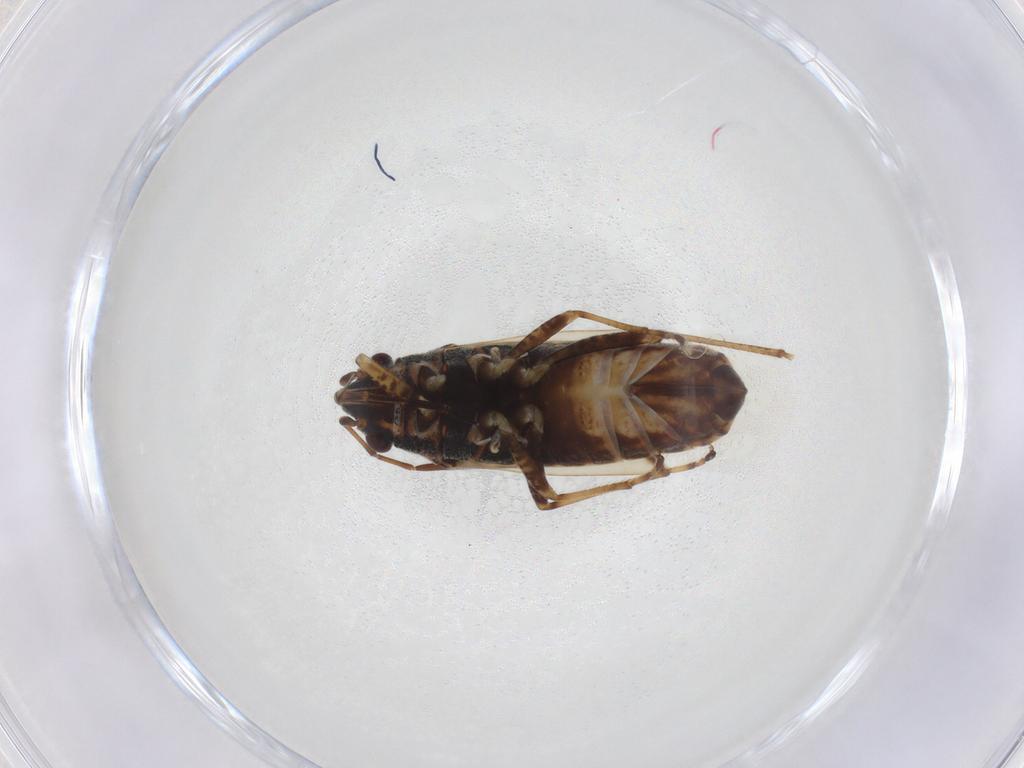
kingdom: Animalia
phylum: Arthropoda
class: Insecta
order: Hemiptera
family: Lygaeidae
